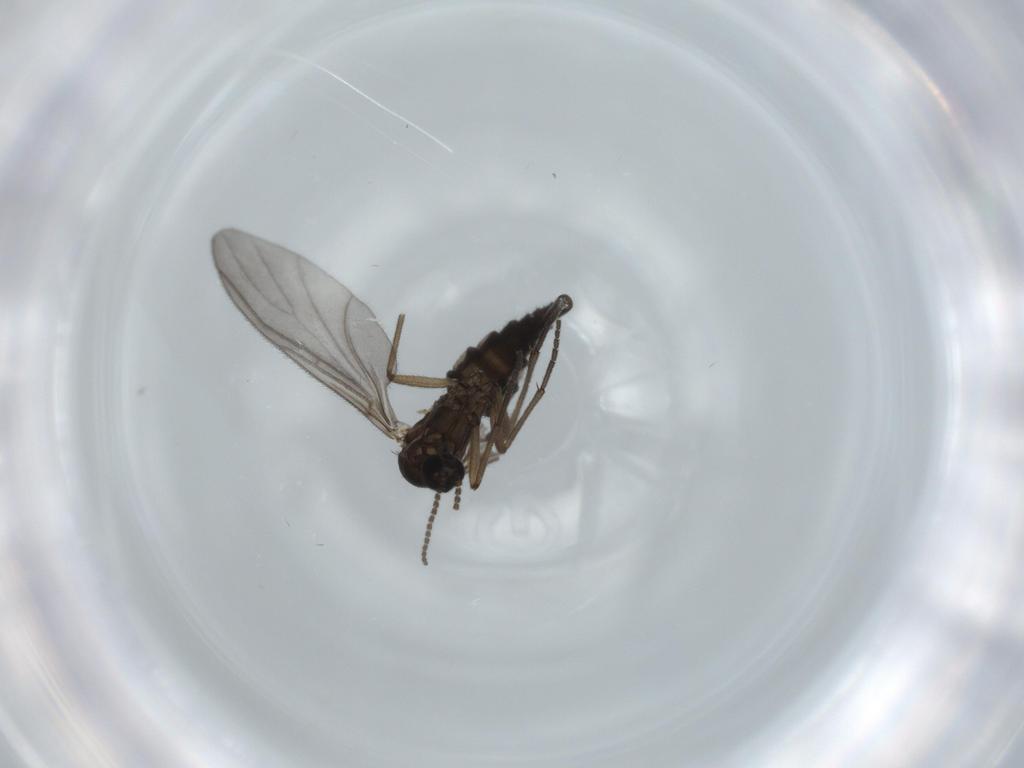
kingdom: Animalia
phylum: Arthropoda
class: Insecta
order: Diptera
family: Sciaridae
